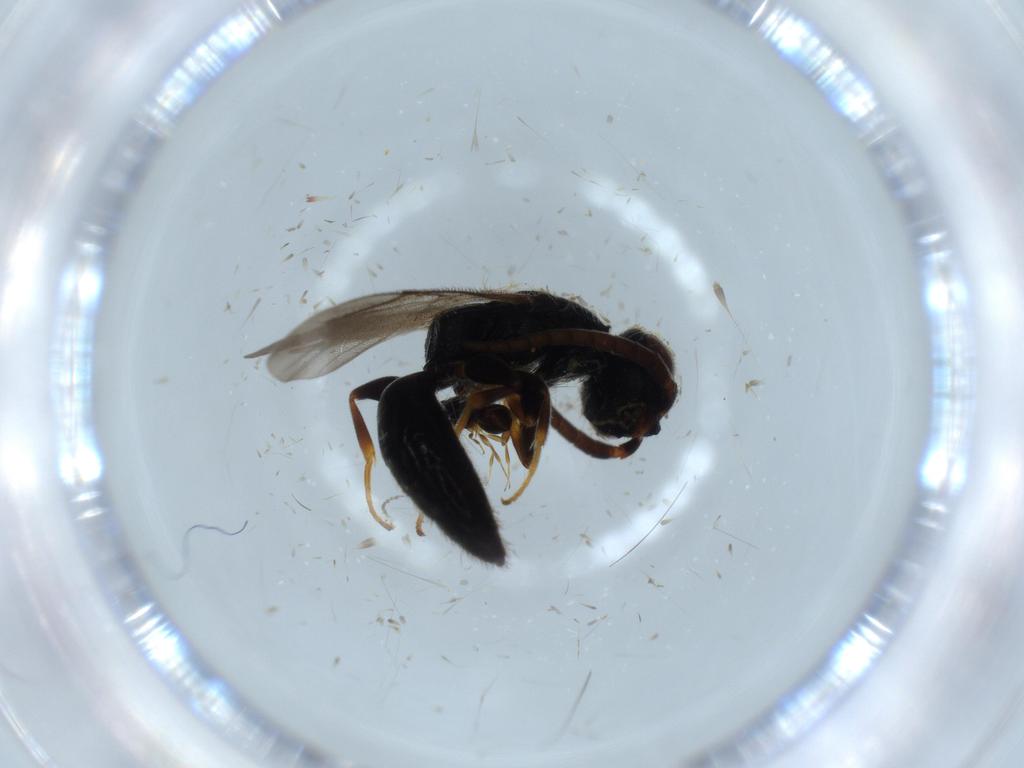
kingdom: Animalia
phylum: Arthropoda
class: Insecta
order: Hymenoptera
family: Bethylidae
